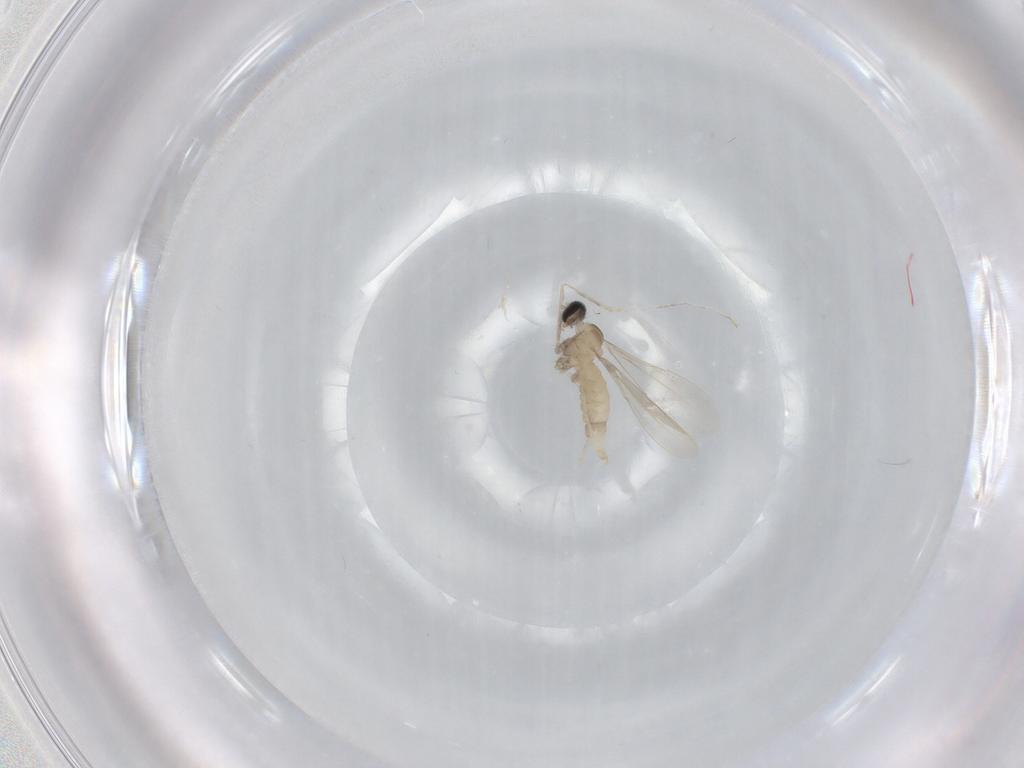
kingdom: Animalia
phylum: Arthropoda
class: Insecta
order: Diptera
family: Cecidomyiidae
